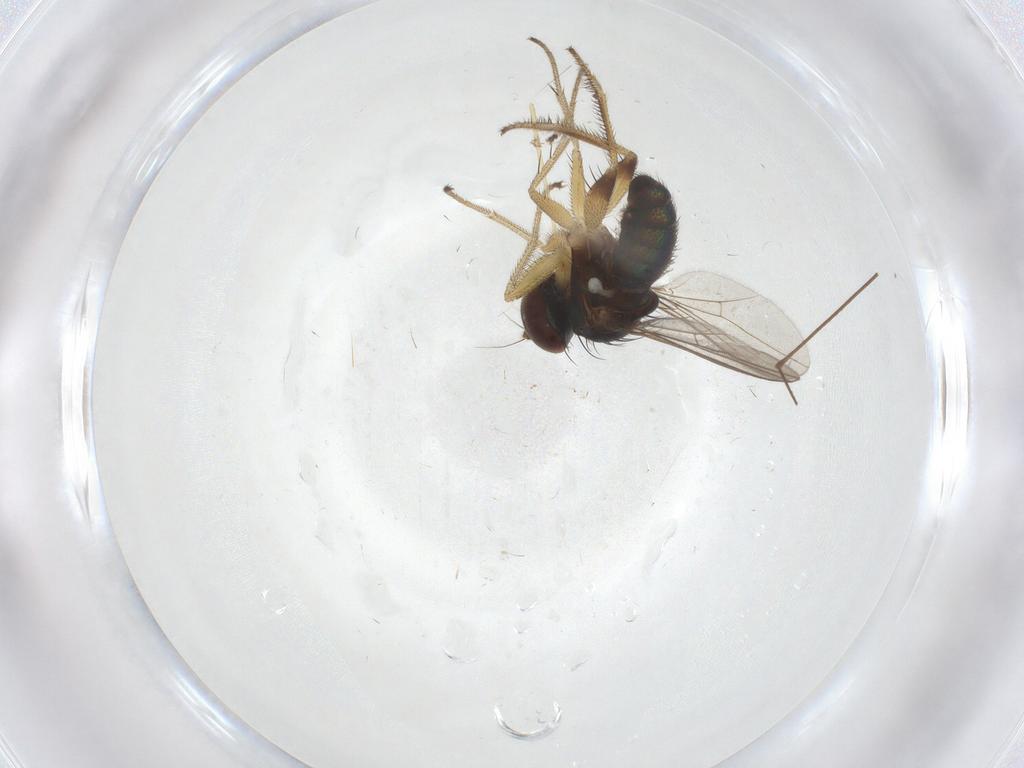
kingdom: Animalia
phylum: Arthropoda
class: Insecta
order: Diptera
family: Dolichopodidae
